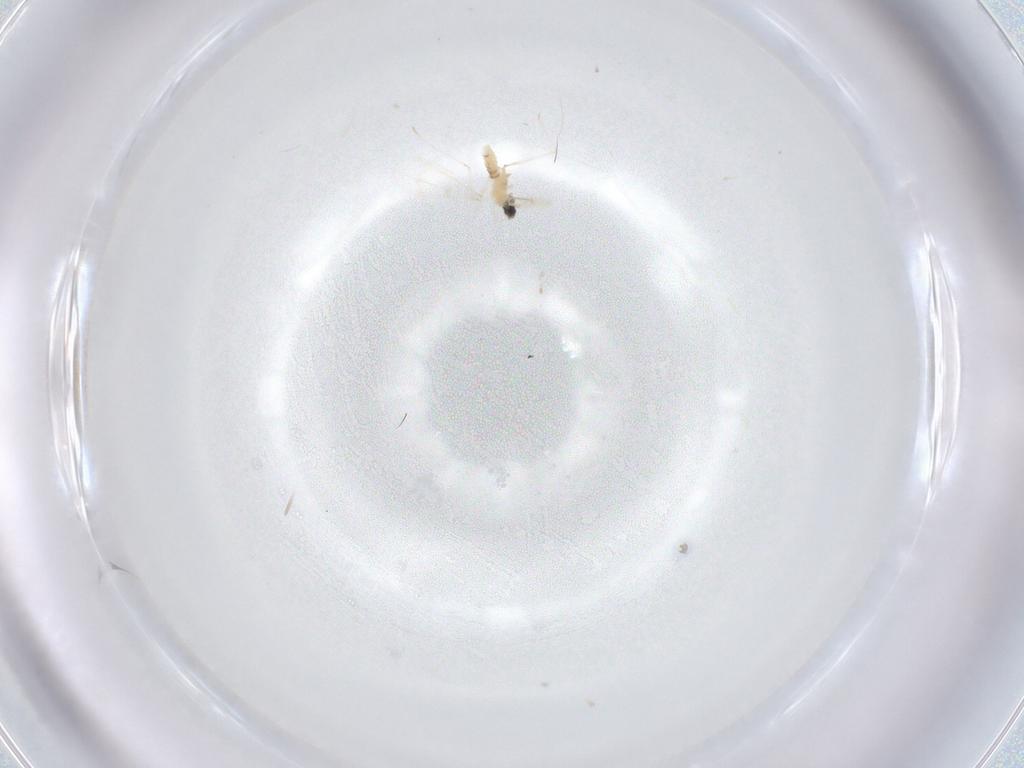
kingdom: Animalia
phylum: Arthropoda
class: Insecta
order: Diptera
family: Cecidomyiidae
